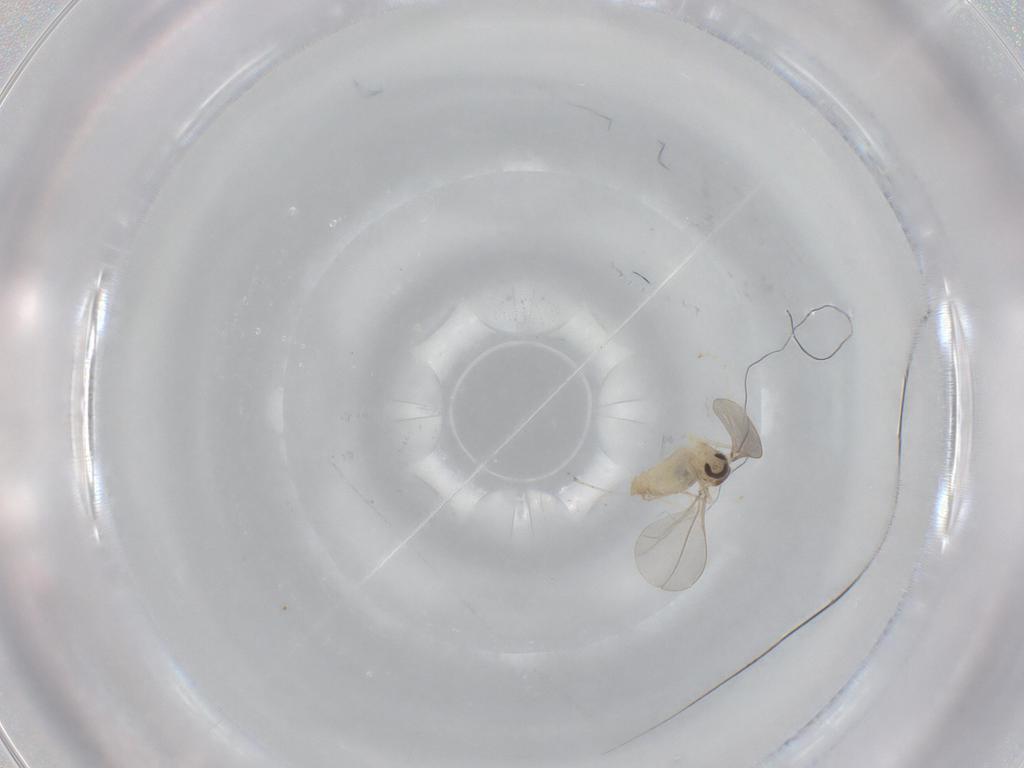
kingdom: Animalia
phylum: Arthropoda
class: Insecta
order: Diptera
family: Cecidomyiidae
